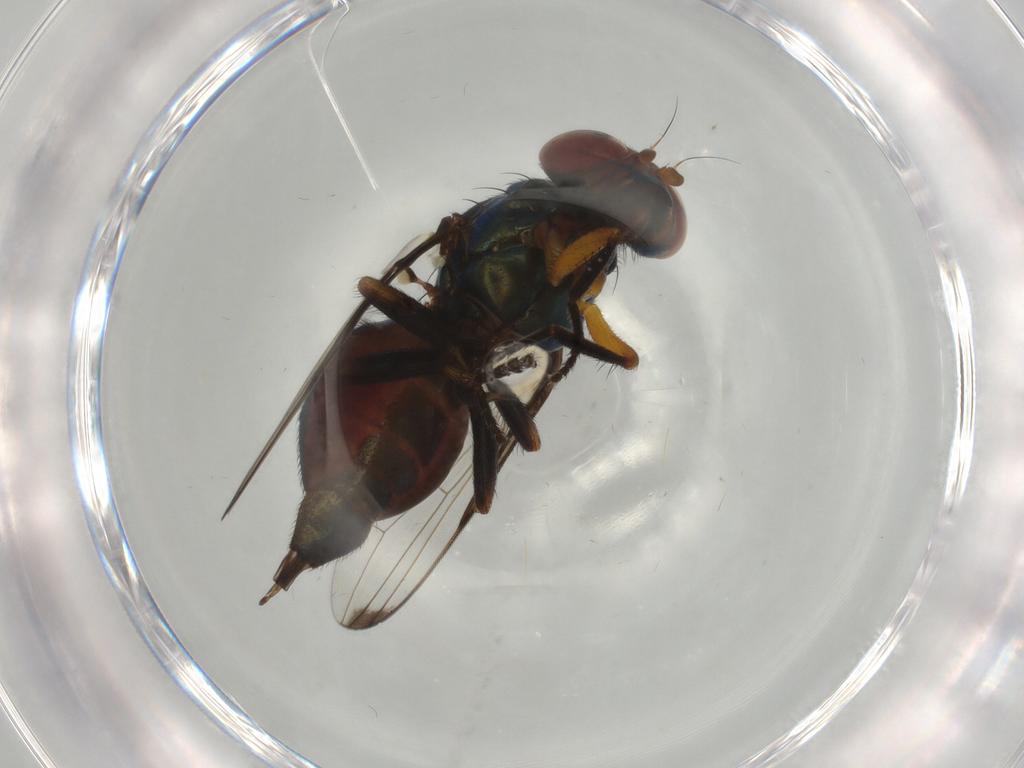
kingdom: Animalia
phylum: Arthropoda
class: Insecta
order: Diptera
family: Ulidiidae
